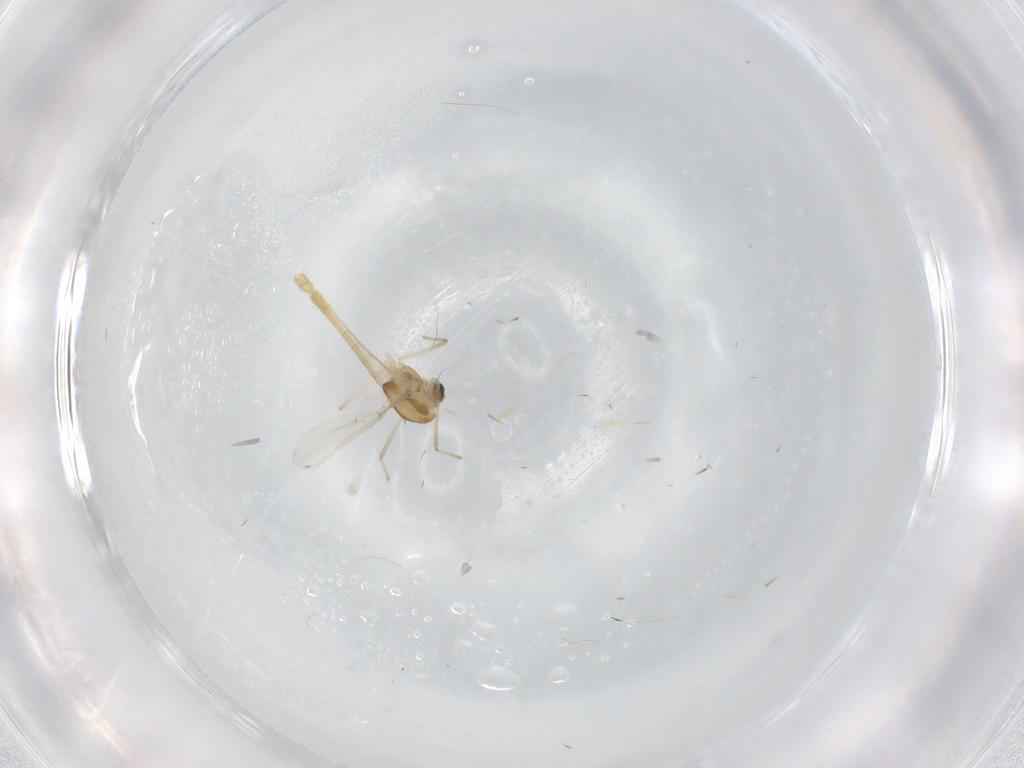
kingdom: Animalia
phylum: Arthropoda
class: Insecta
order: Diptera
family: Chironomidae
